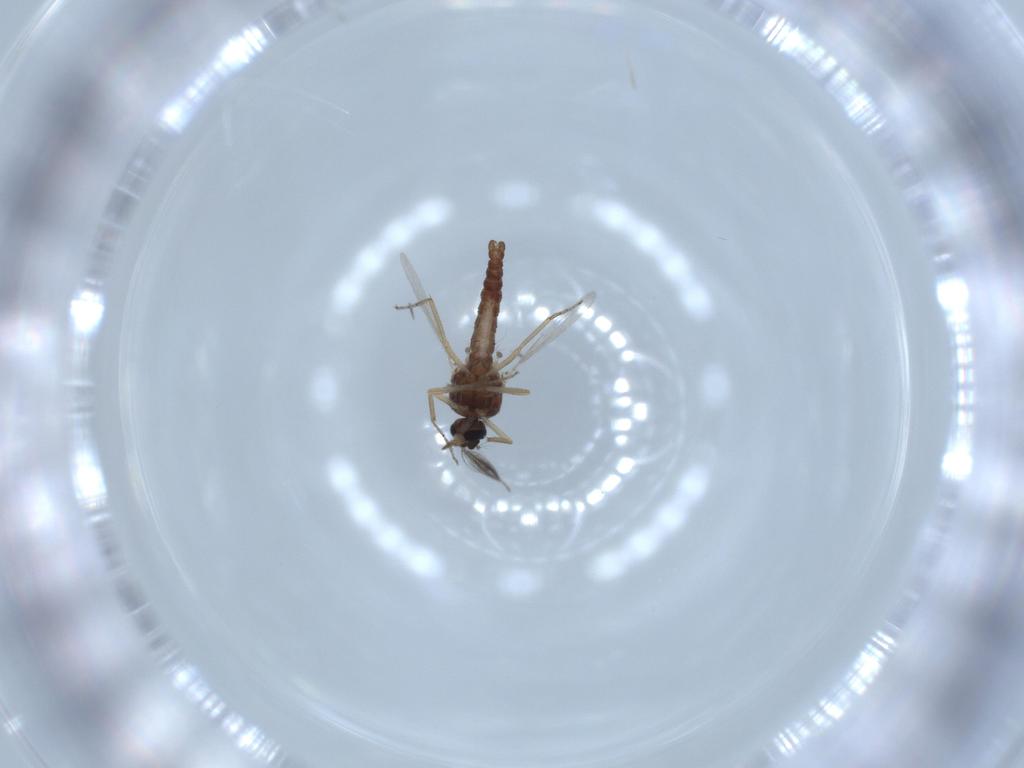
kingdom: Animalia
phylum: Arthropoda
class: Insecta
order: Diptera
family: Ceratopogonidae
